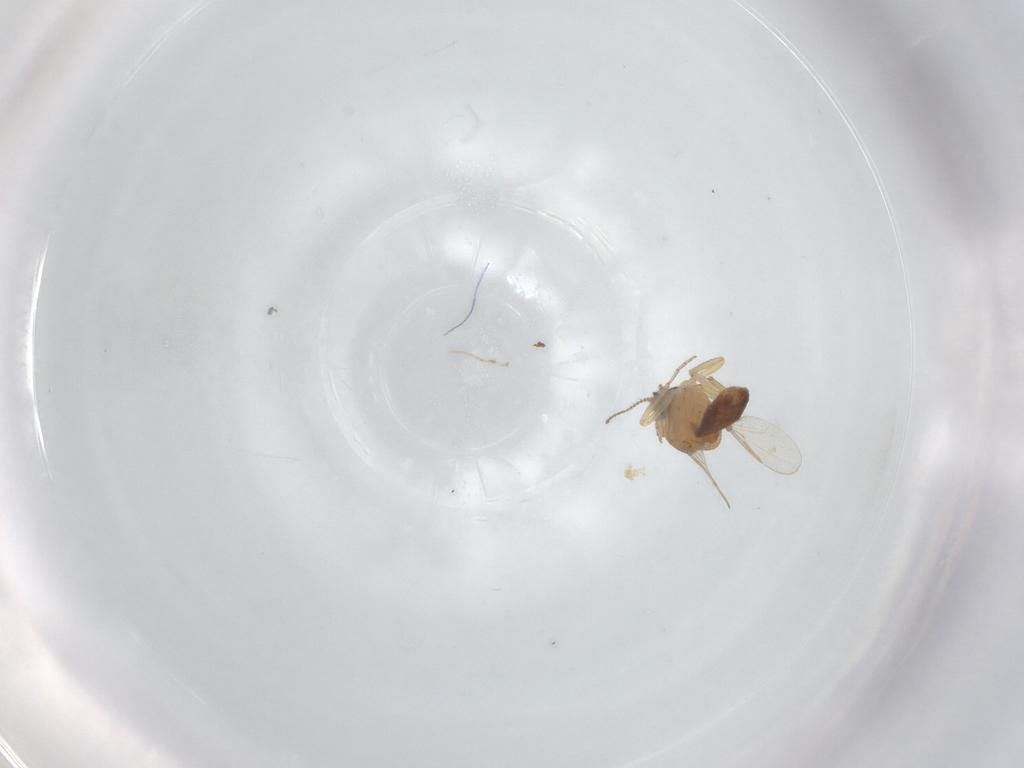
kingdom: Animalia
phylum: Arthropoda
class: Insecta
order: Diptera
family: Ceratopogonidae
